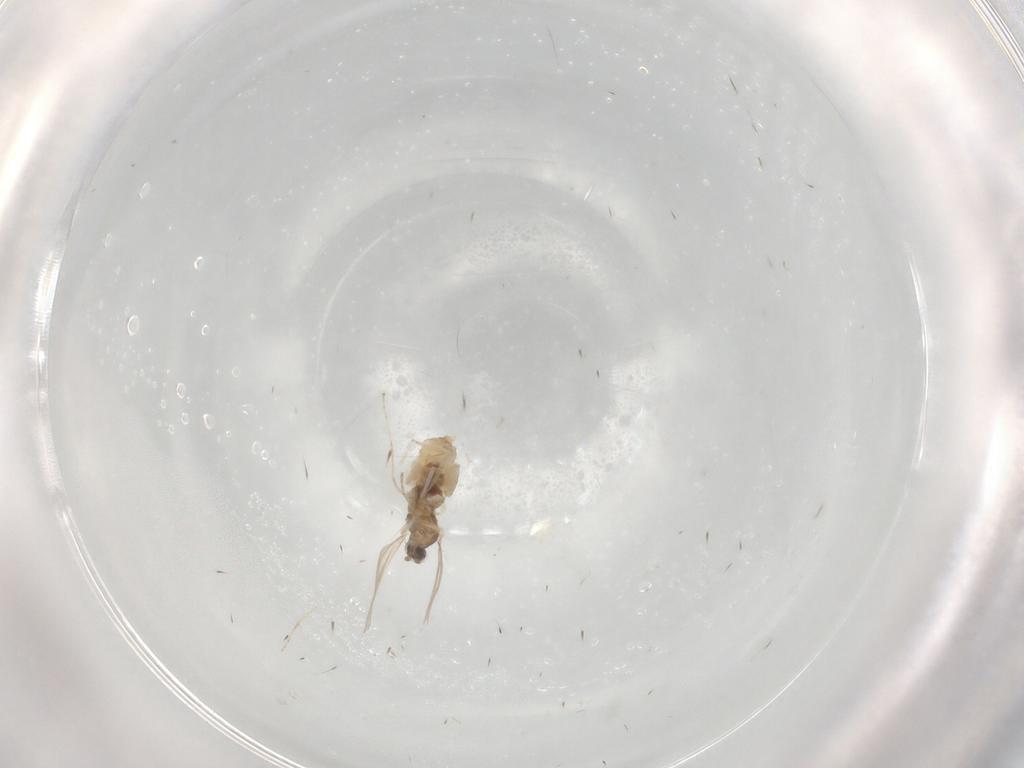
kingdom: Animalia
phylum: Arthropoda
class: Insecta
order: Diptera
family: Cecidomyiidae
